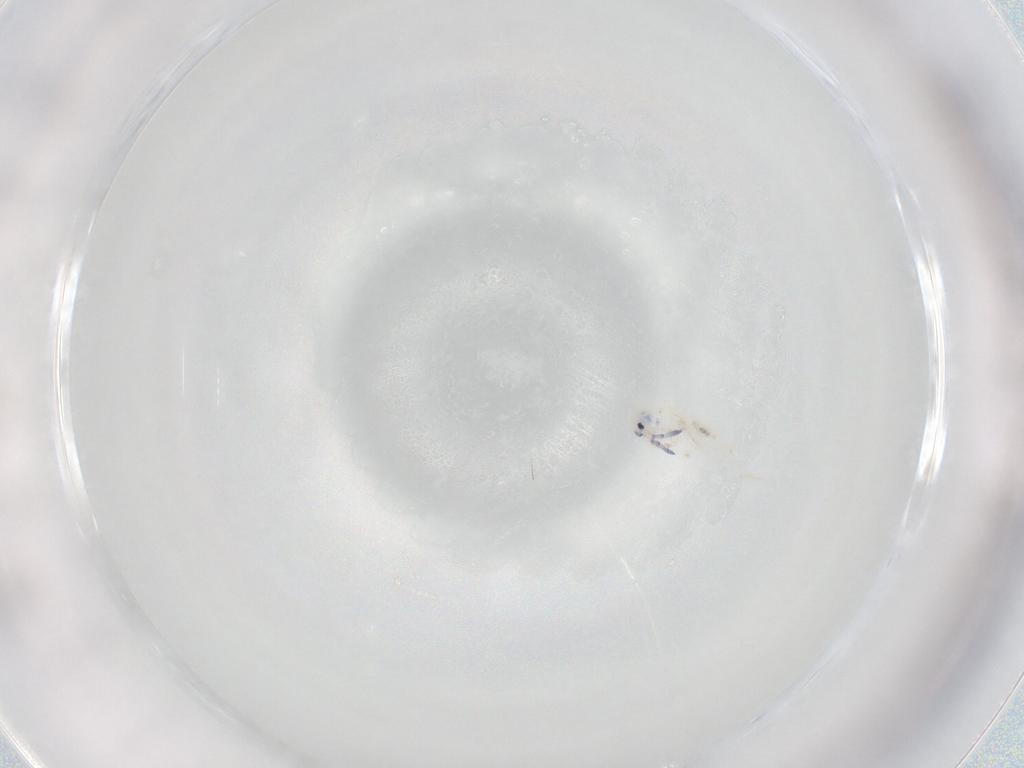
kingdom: Animalia
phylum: Arthropoda
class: Collembola
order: Entomobryomorpha
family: Entomobryidae
